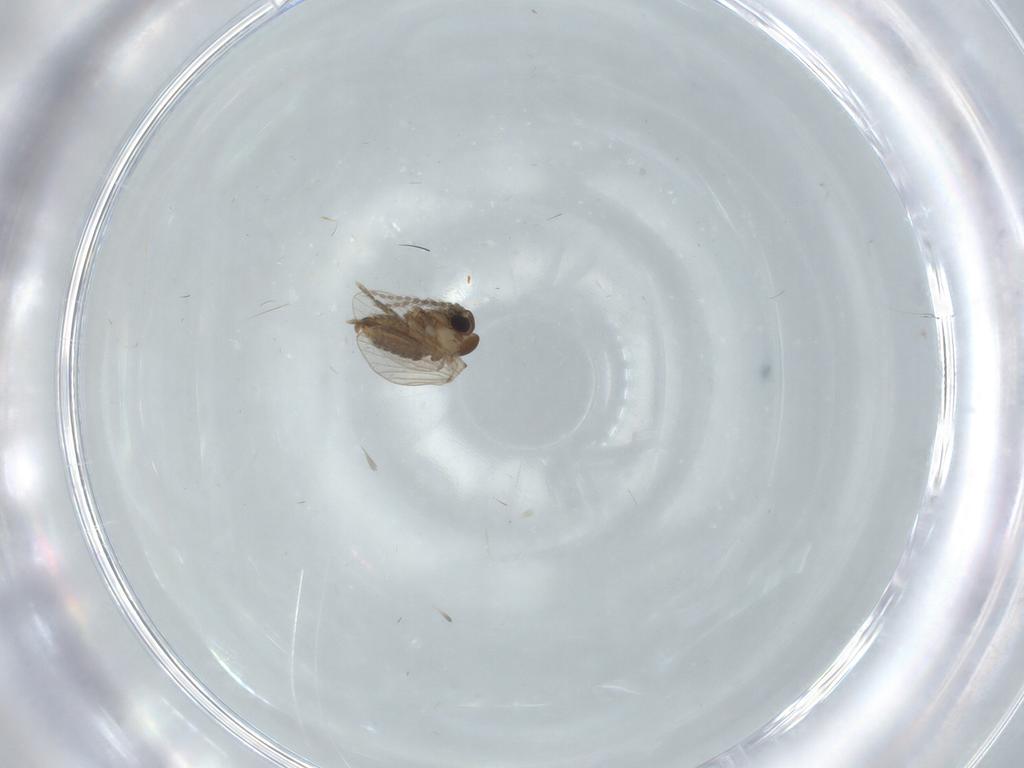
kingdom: Animalia
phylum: Arthropoda
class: Insecta
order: Diptera
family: Cecidomyiidae
